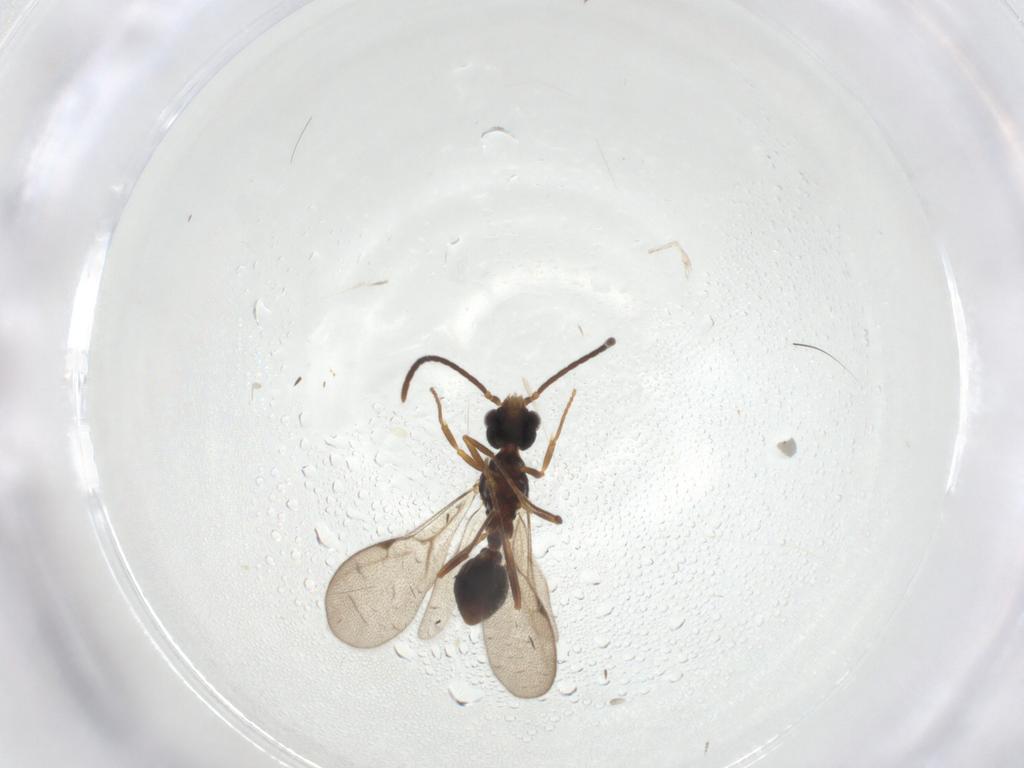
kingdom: Animalia
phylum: Arthropoda
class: Insecta
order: Hymenoptera
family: Formicidae
